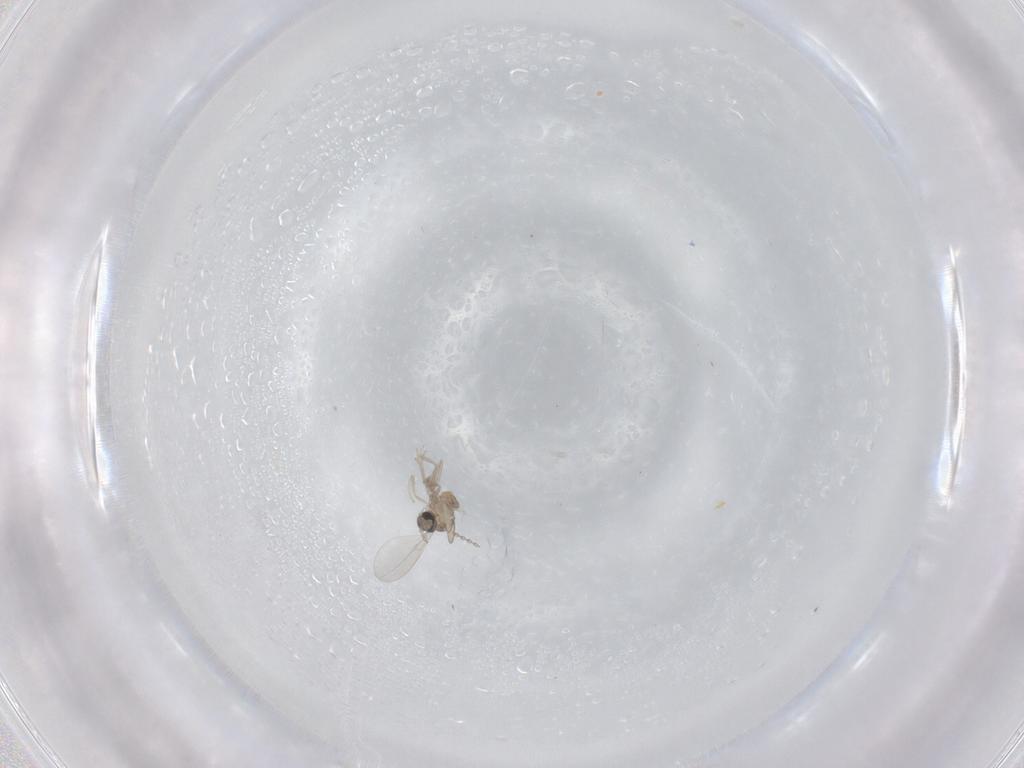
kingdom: Animalia
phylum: Arthropoda
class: Insecta
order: Diptera
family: Cecidomyiidae
